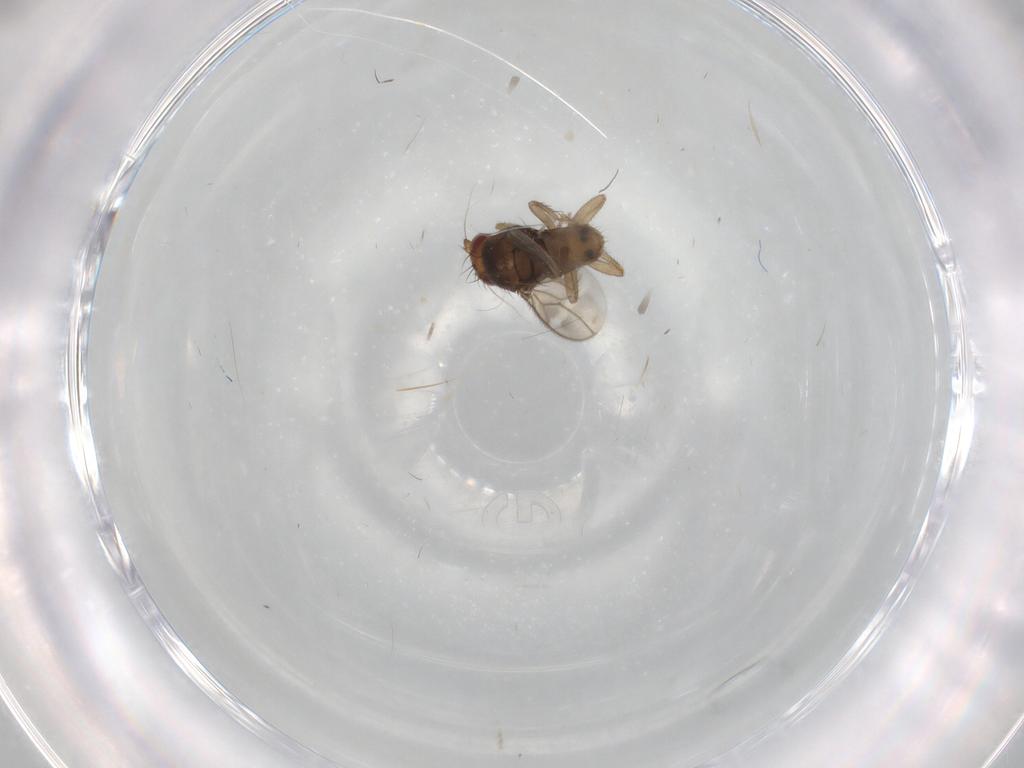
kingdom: Animalia
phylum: Arthropoda
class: Insecta
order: Diptera
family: Sphaeroceridae
